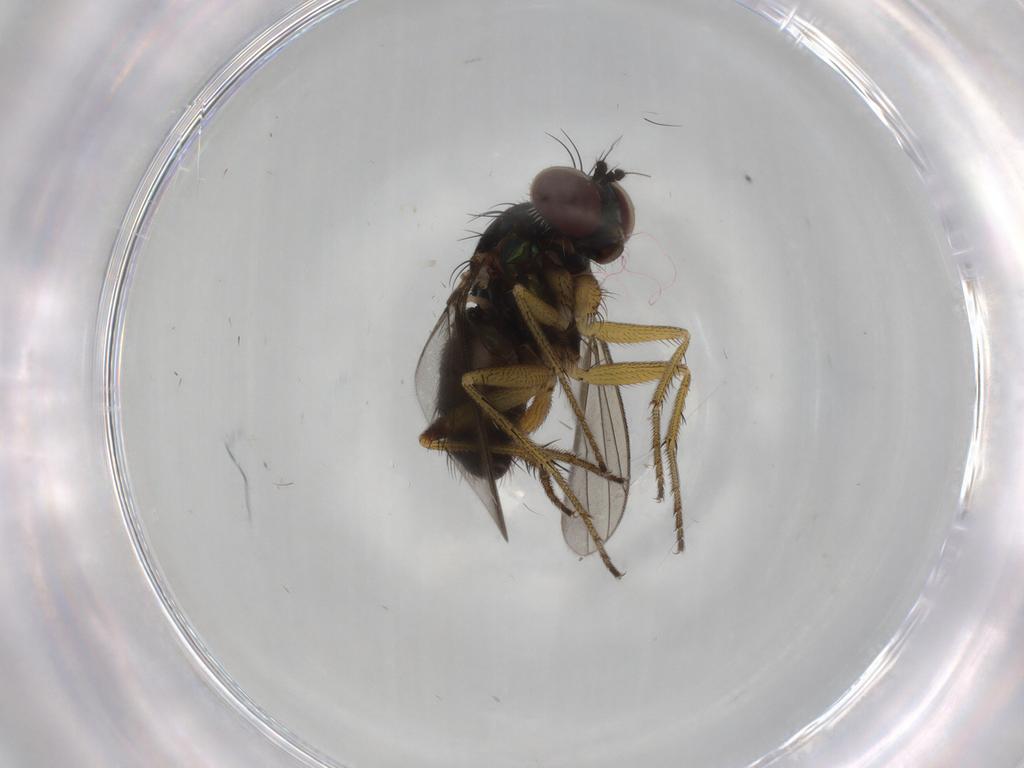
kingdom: Animalia
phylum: Arthropoda
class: Insecta
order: Diptera
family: Dolichopodidae
